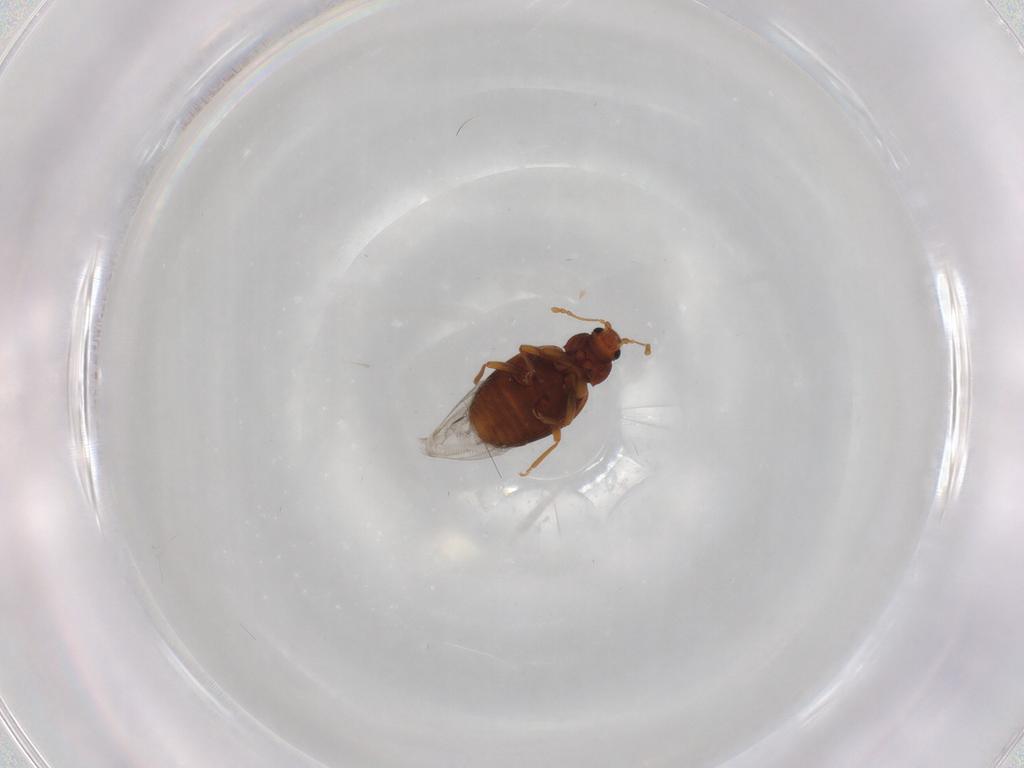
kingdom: Animalia
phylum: Arthropoda
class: Insecta
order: Coleoptera
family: Latridiidae
